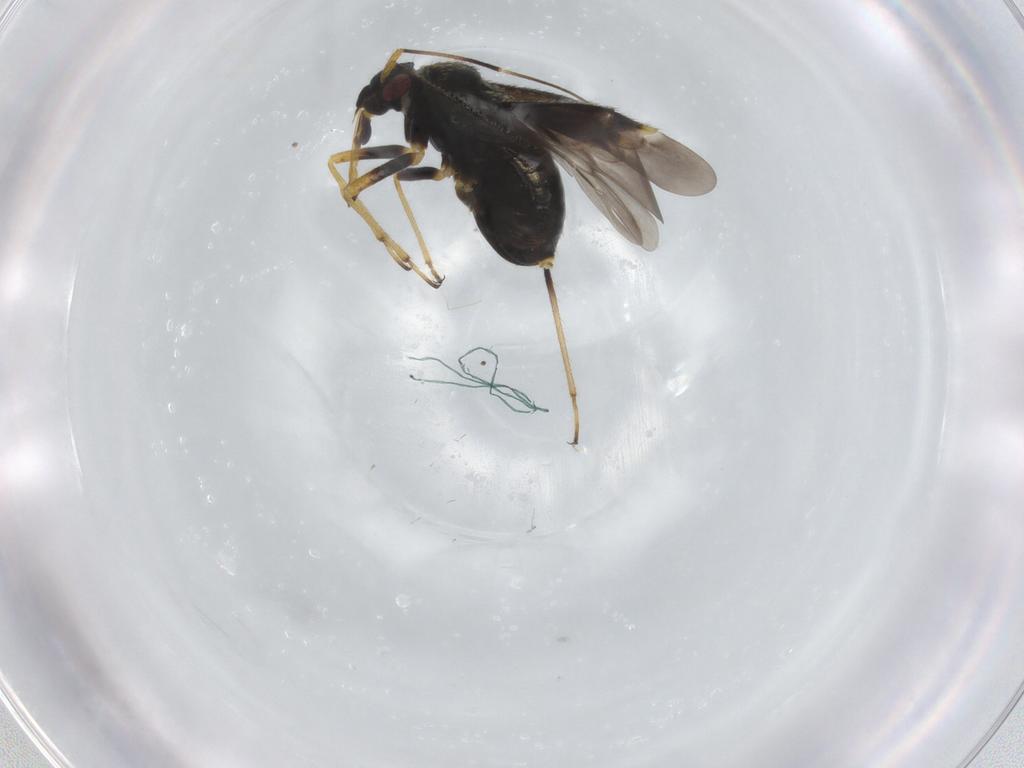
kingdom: Animalia
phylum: Arthropoda
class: Insecta
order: Hemiptera
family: Miridae
